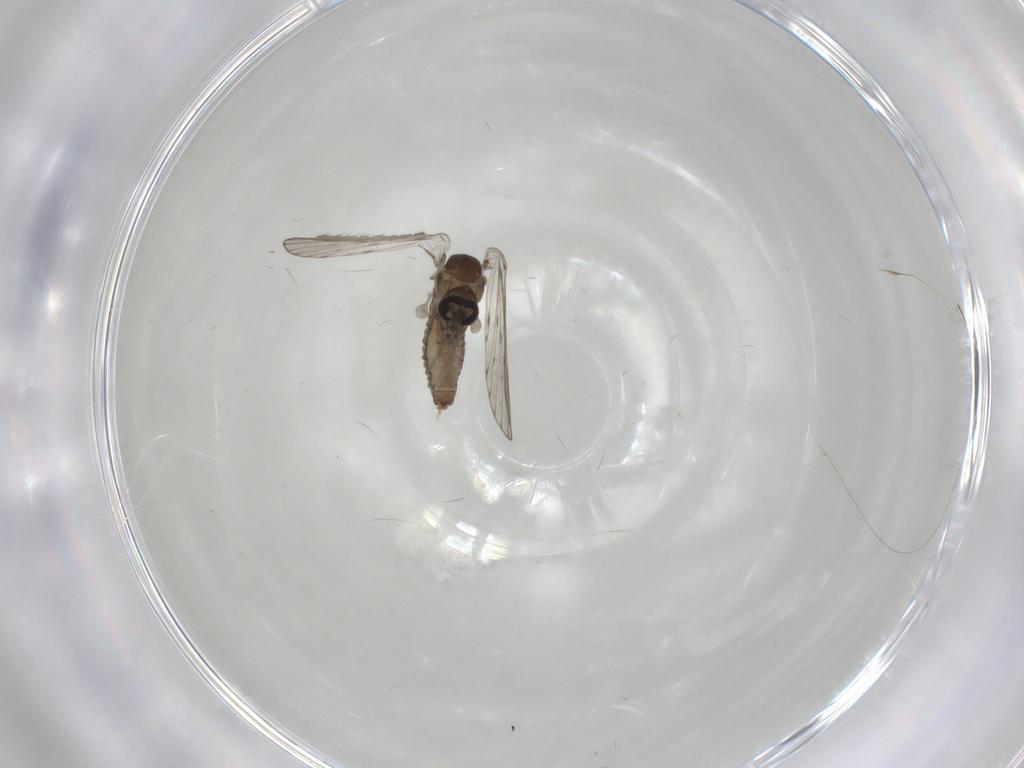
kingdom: Animalia
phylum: Arthropoda
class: Insecta
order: Diptera
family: Psychodidae
